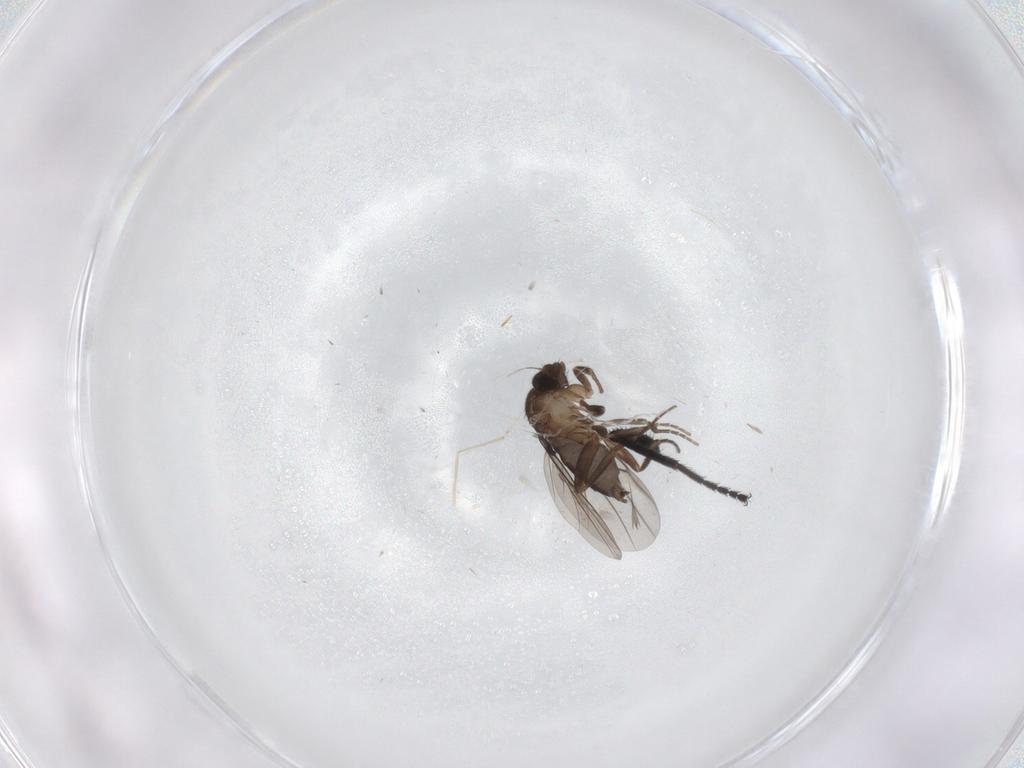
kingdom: Animalia
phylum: Arthropoda
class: Insecta
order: Diptera
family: Milichiidae
